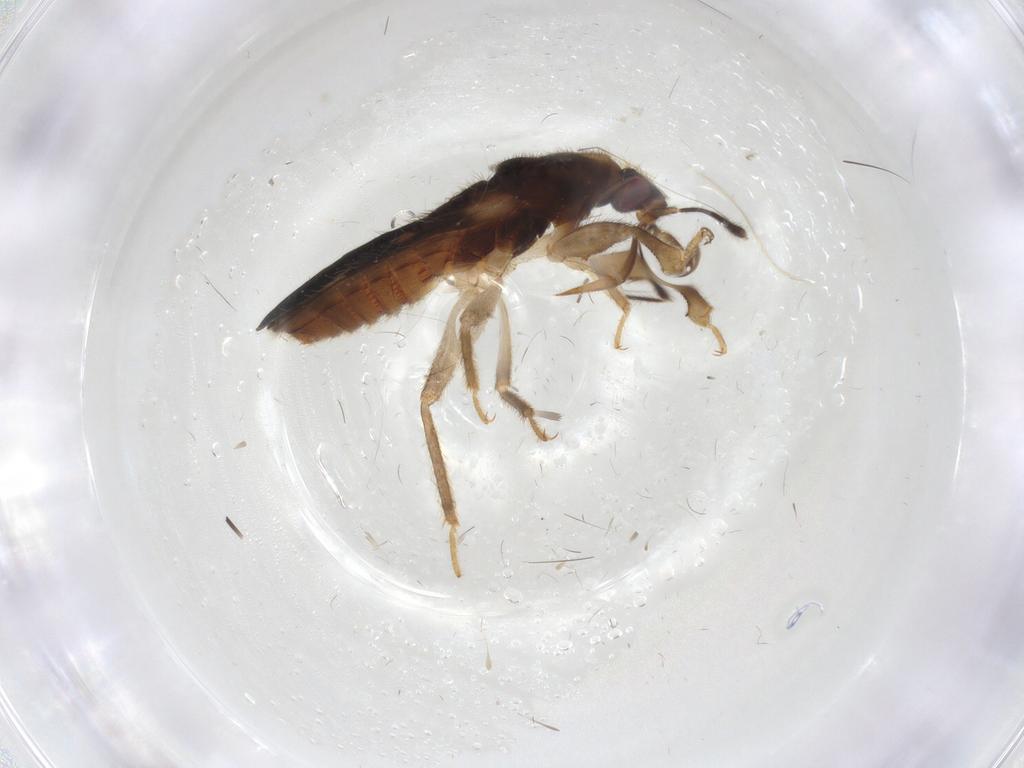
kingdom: Animalia
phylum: Arthropoda
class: Insecta
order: Hemiptera
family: Nabidae
